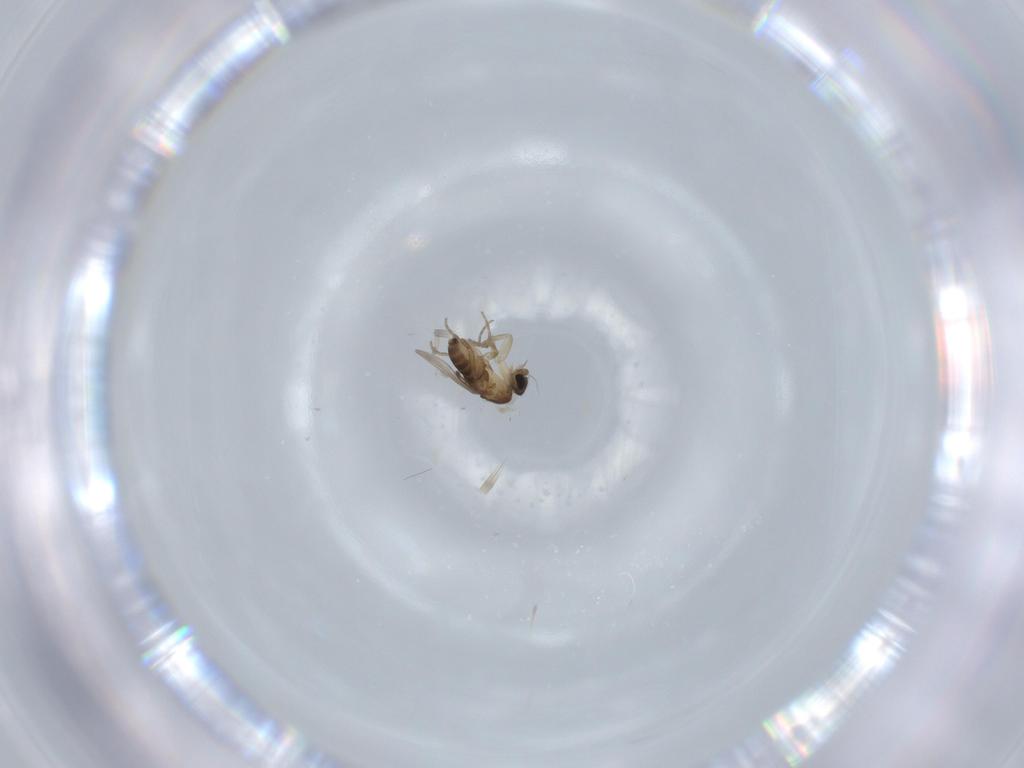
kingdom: Animalia
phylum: Arthropoda
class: Insecta
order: Diptera
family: Phoridae
